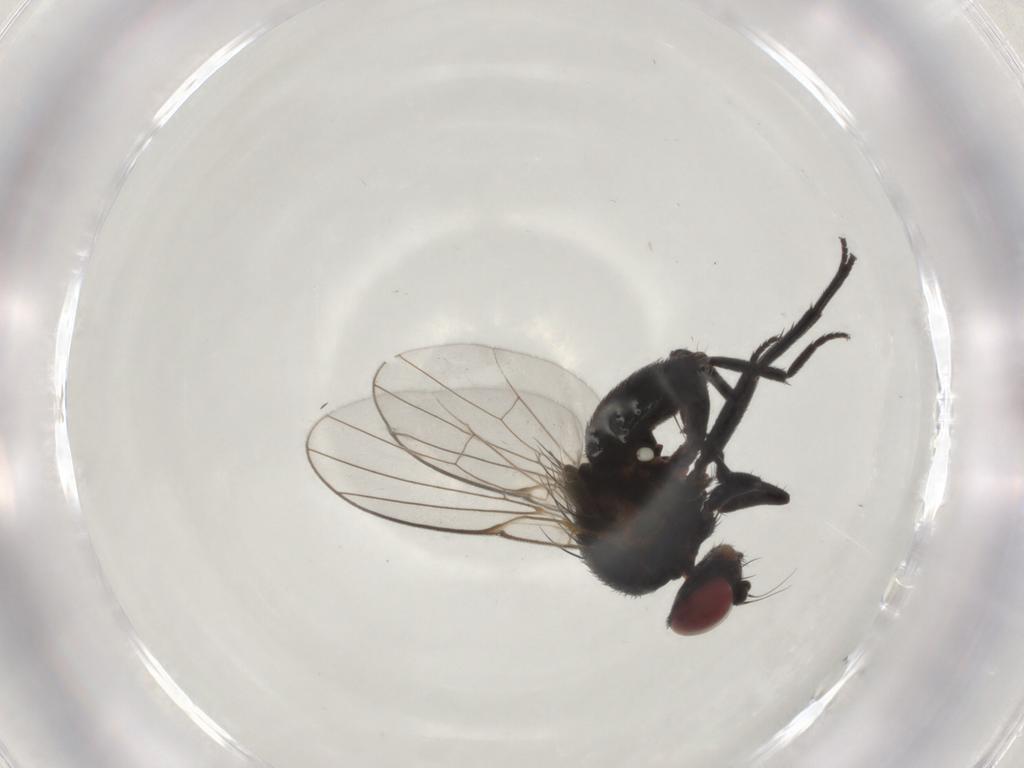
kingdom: Animalia
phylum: Arthropoda
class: Insecta
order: Diptera
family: Agromyzidae
